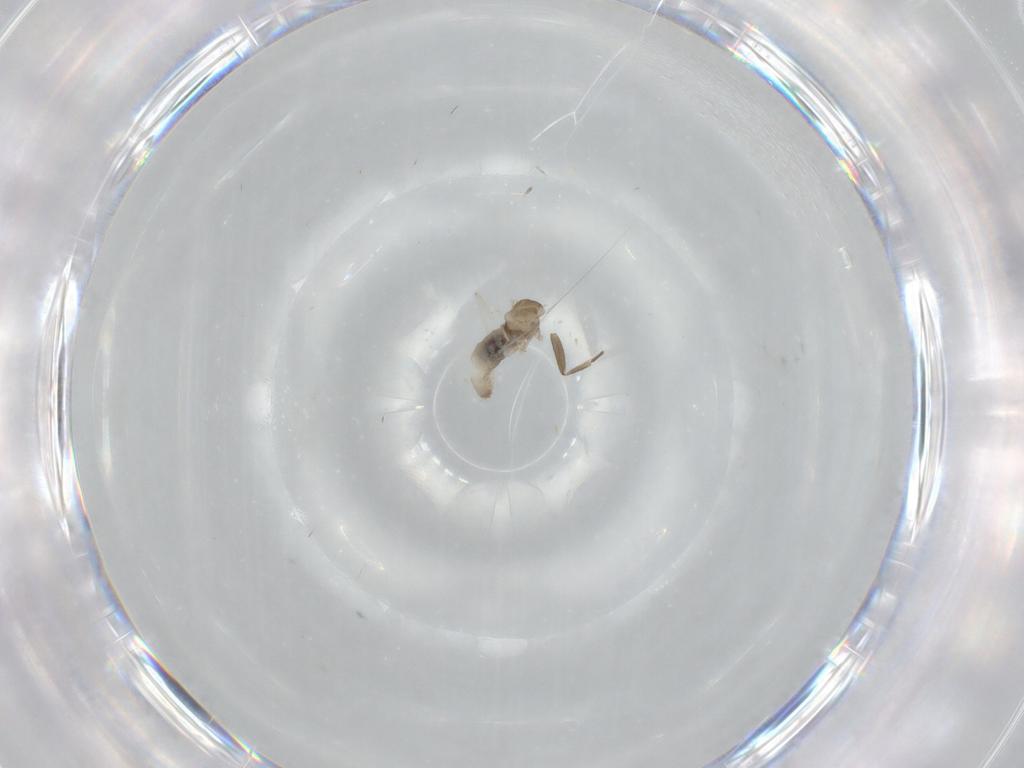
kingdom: Animalia
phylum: Arthropoda
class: Insecta
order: Diptera
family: Cecidomyiidae
